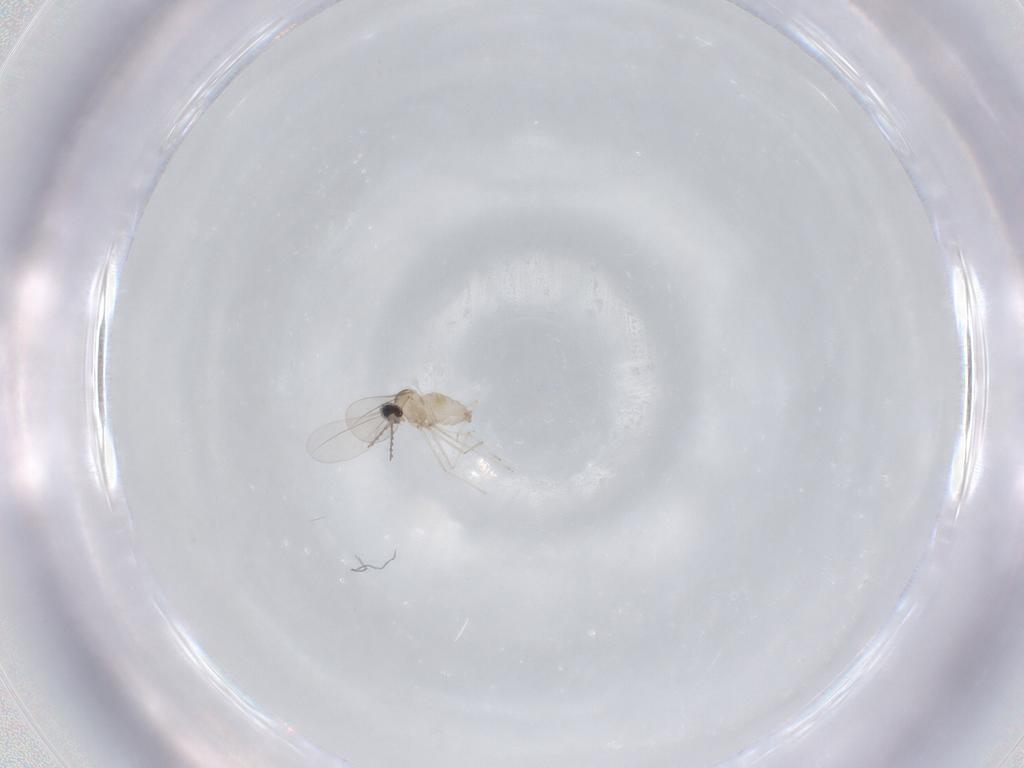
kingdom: Animalia
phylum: Arthropoda
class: Insecta
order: Diptera
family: Cecidomyiidae
